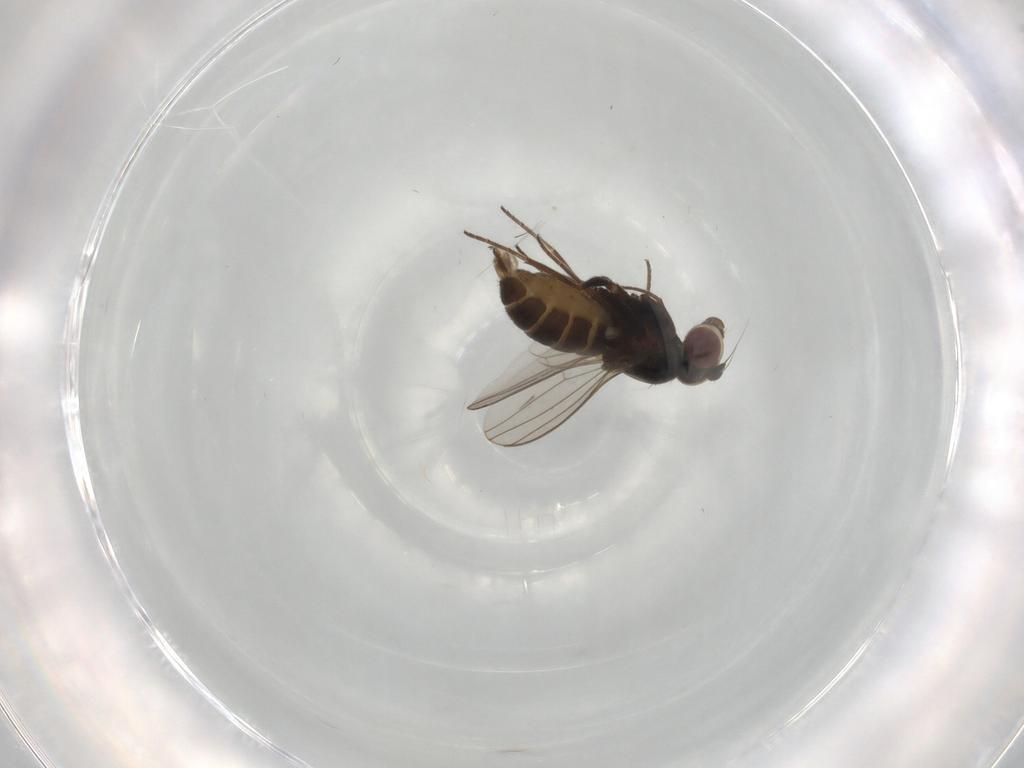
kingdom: Animalia
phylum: Arthropoda
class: Insecta
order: Diptera
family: Dolichopodidae
